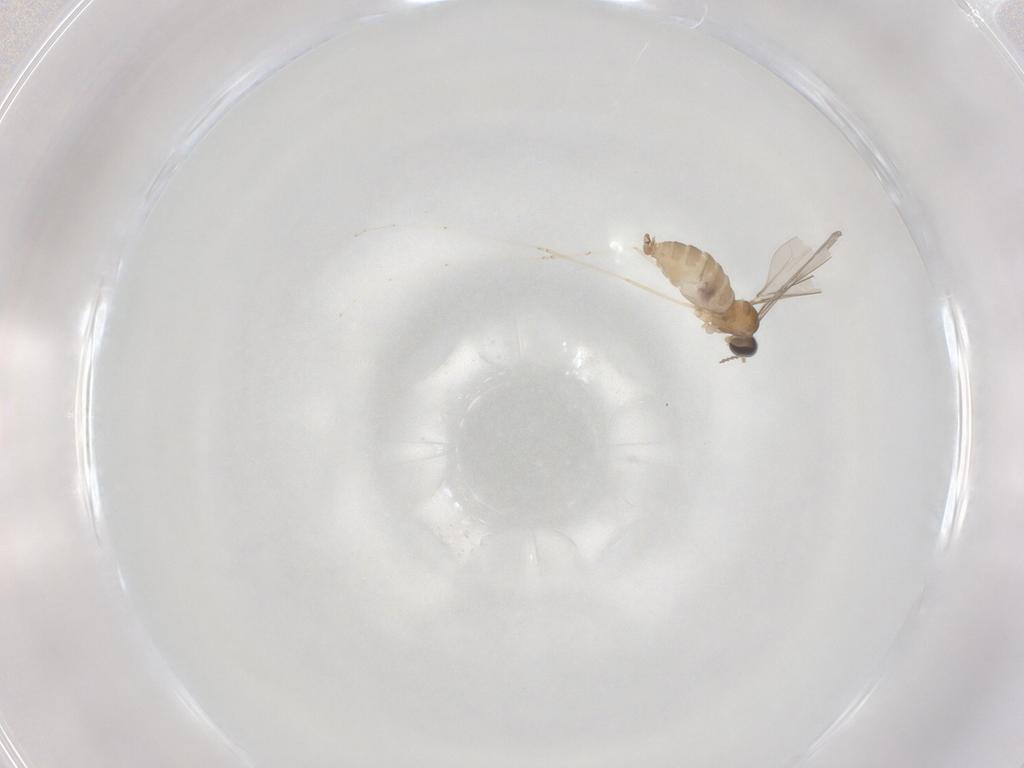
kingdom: Animalia
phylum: Arthropoda
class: Insecta
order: Diptera
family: Cecidomyiidae
